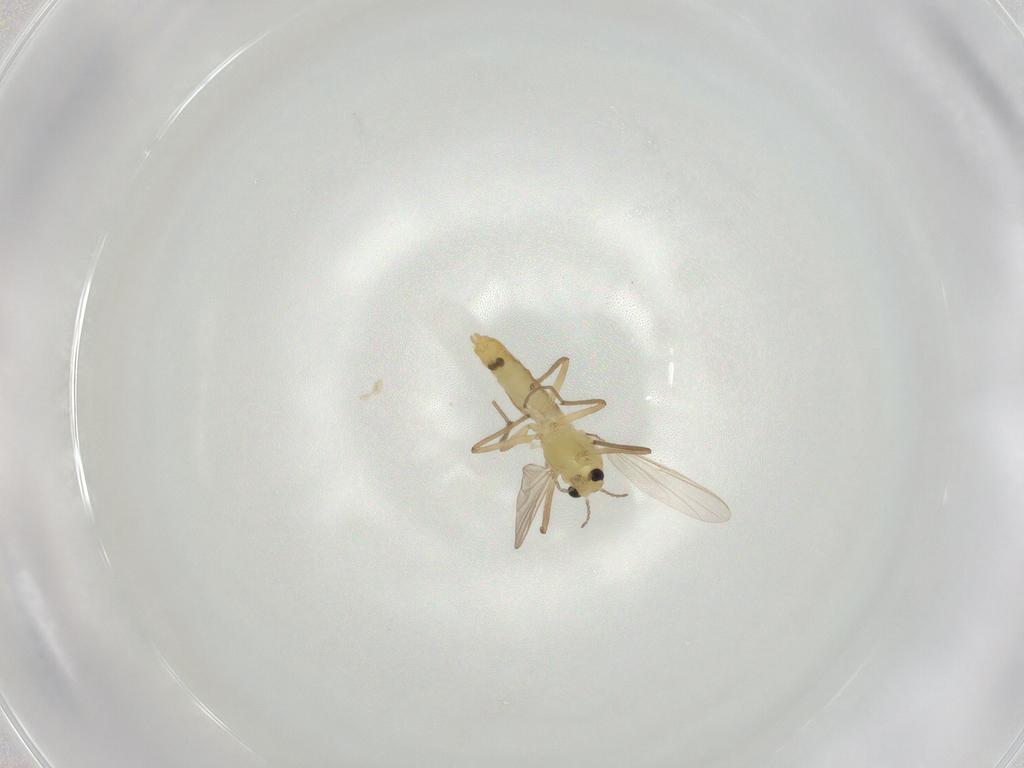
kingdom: Animalia
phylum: Arthropoda
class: Insecta
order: Diptera
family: Chironomidae
